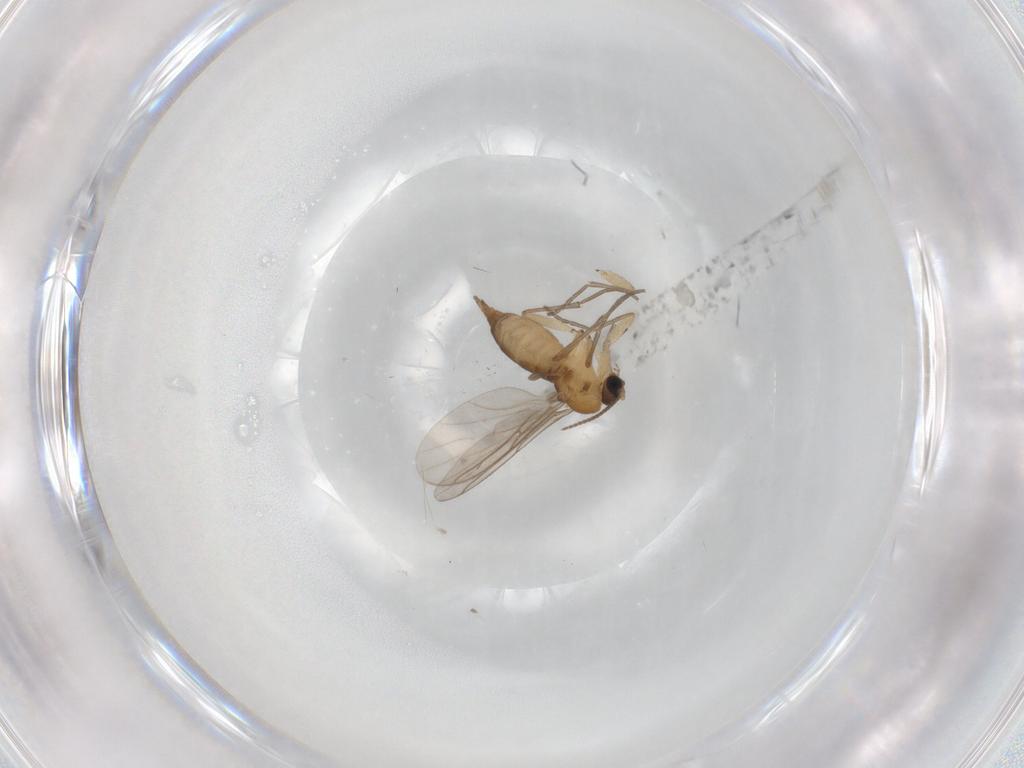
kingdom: Animalia
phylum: Arthropoda
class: Insecta
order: Diptera
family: Sciaridae
